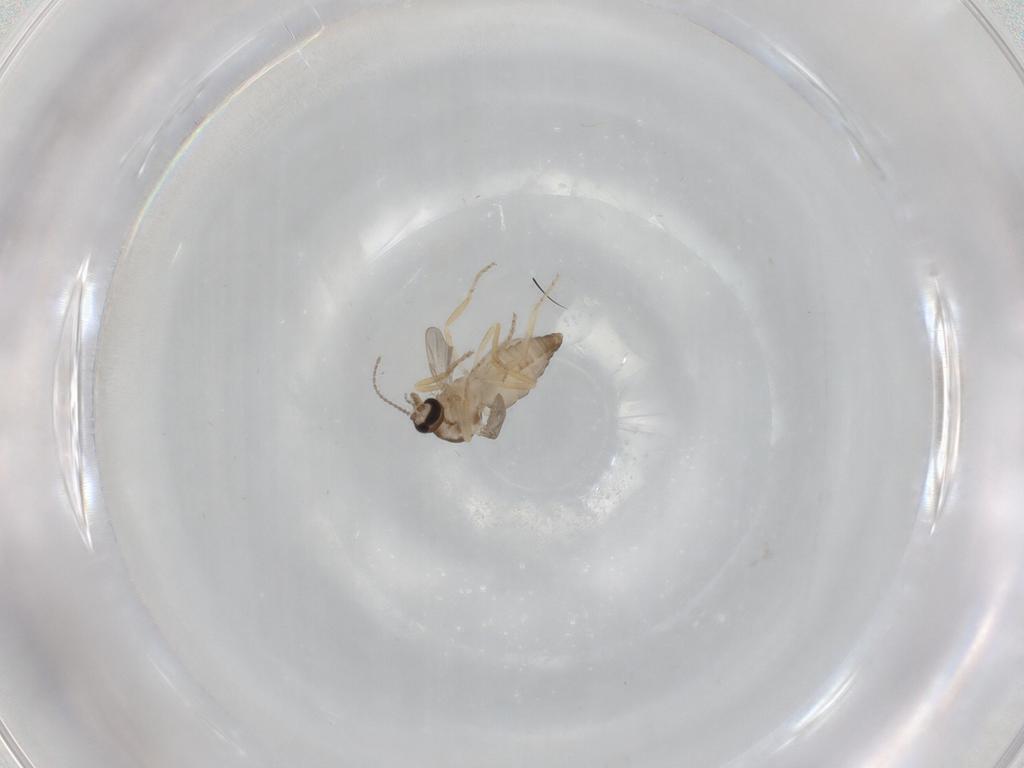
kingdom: Animalia
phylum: Arthropoda
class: Insecta
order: Diptera
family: Ceratopogonidae
